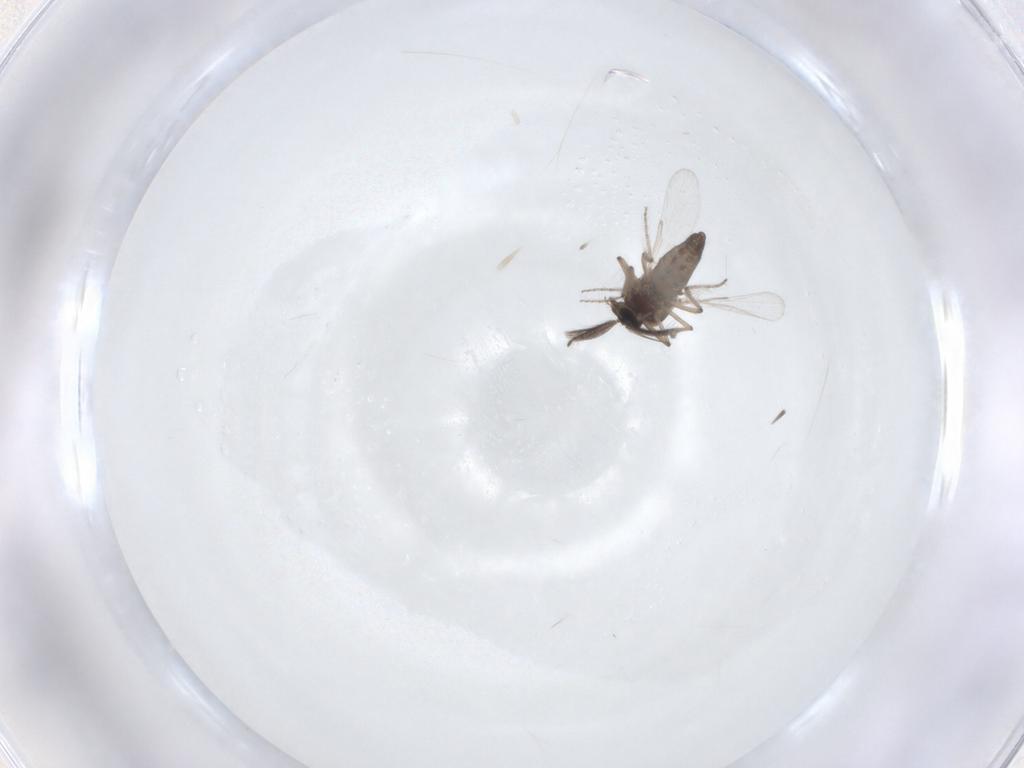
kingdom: Animalia
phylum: Arthropoda
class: Insecta
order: Diptera
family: Ceratopogonidae
